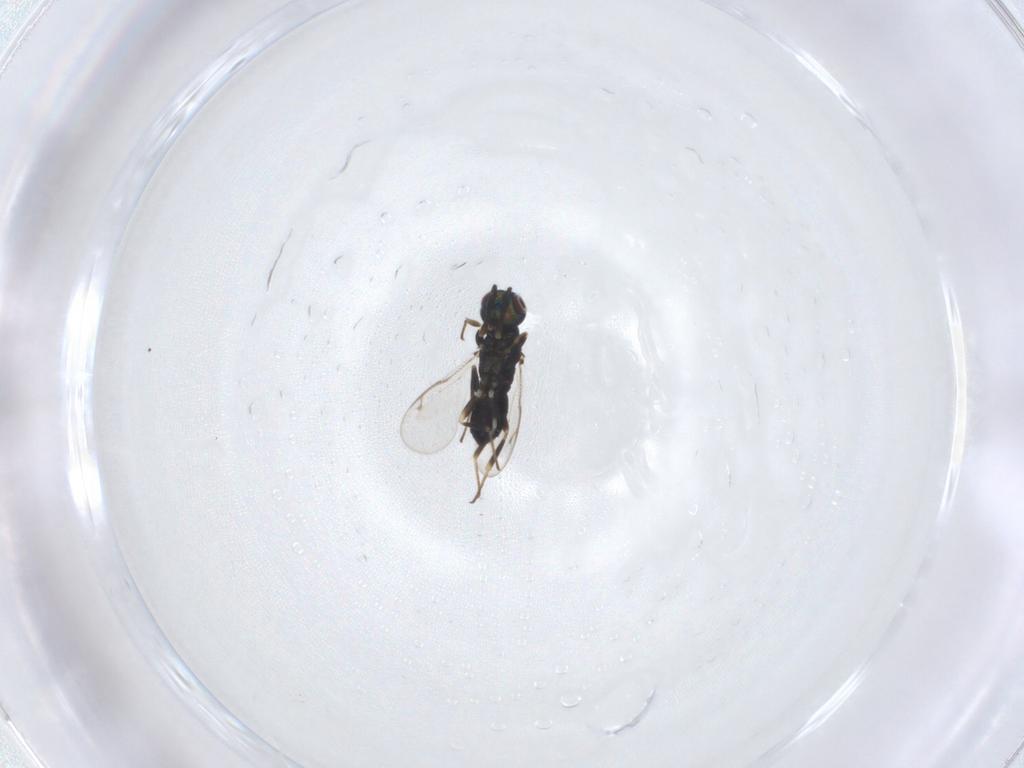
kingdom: Animalia
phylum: Arthropoda
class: Insecta
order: Hymenoptera
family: Eupelmidae
